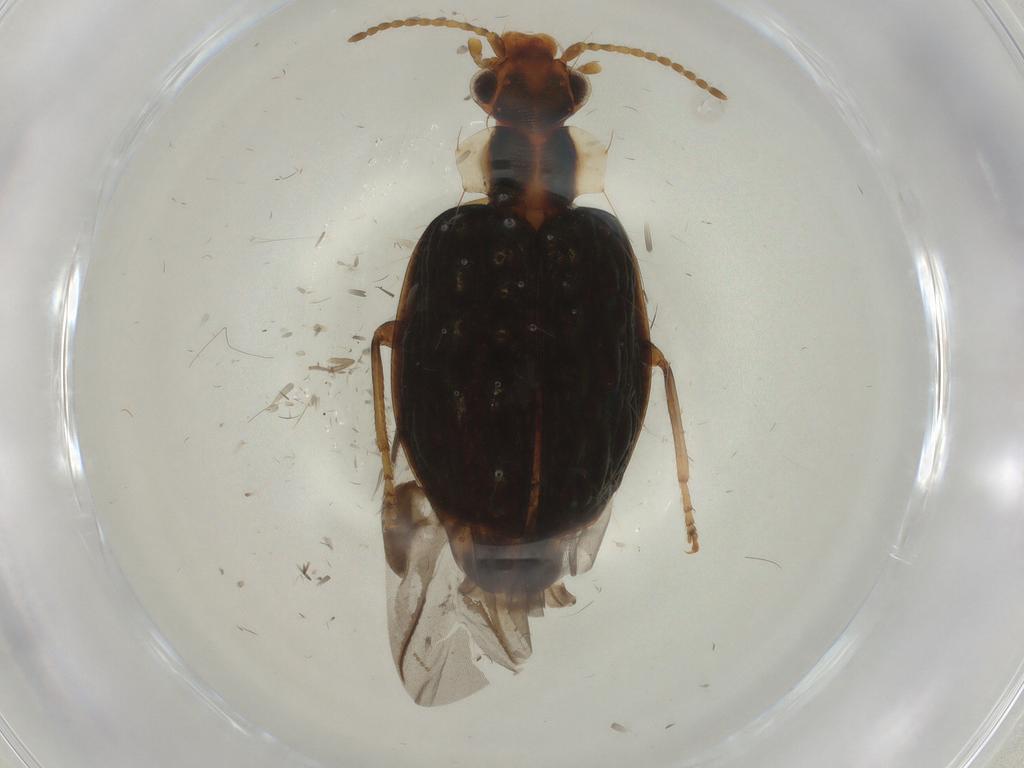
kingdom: Animalia
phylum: Arthropoda
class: Insecta
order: Coleoptera
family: Carabidae
